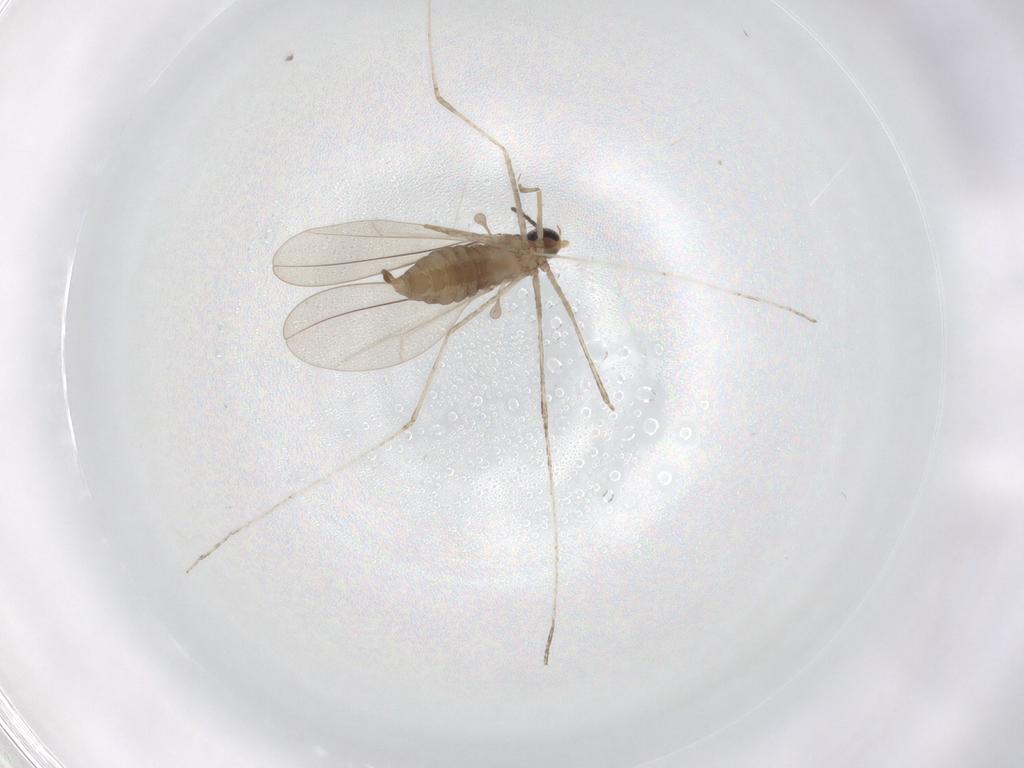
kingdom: Animalia
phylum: Arthropoda
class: Insecta
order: Diptera
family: Cecidomyiidae
